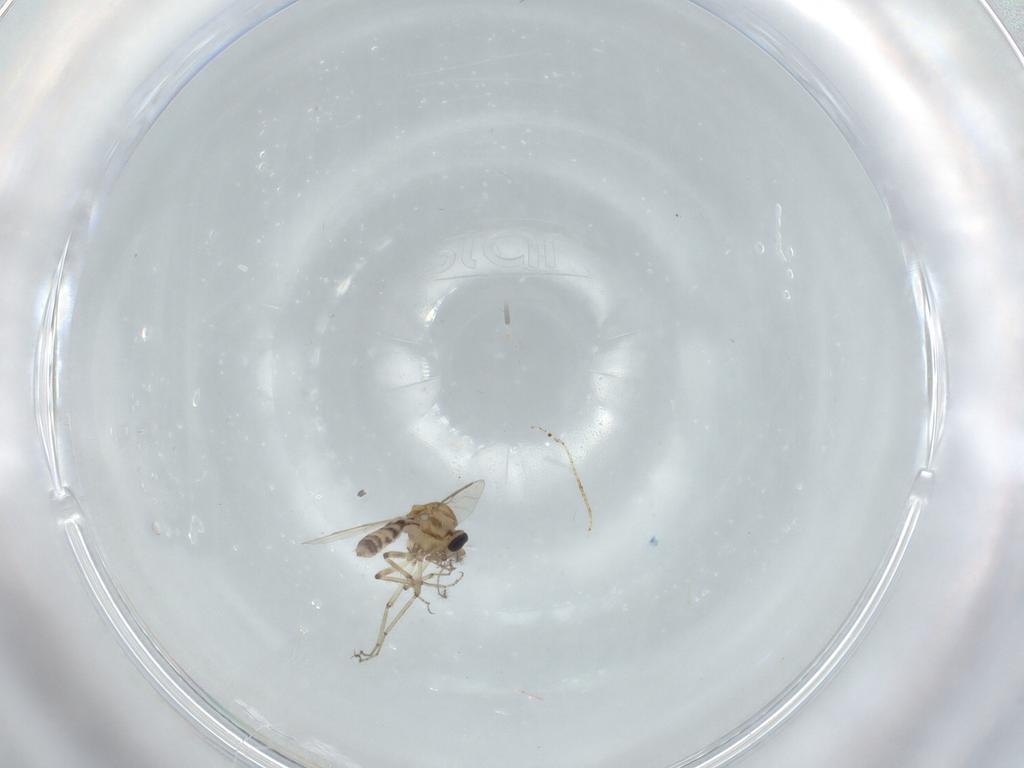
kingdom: Animalia
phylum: Arthropoda
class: Insecta
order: Diptera
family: Ceratopogonidae
